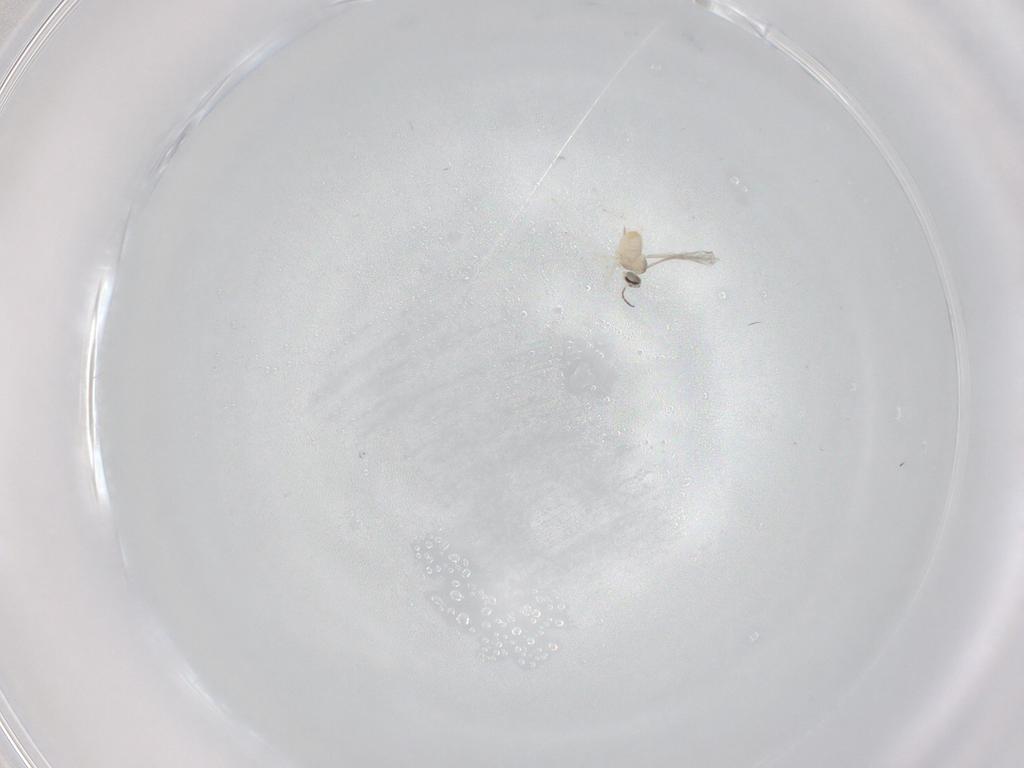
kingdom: Animalia
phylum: Arthropoda
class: Insecta
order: Diptera
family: Cecidomyiidae
